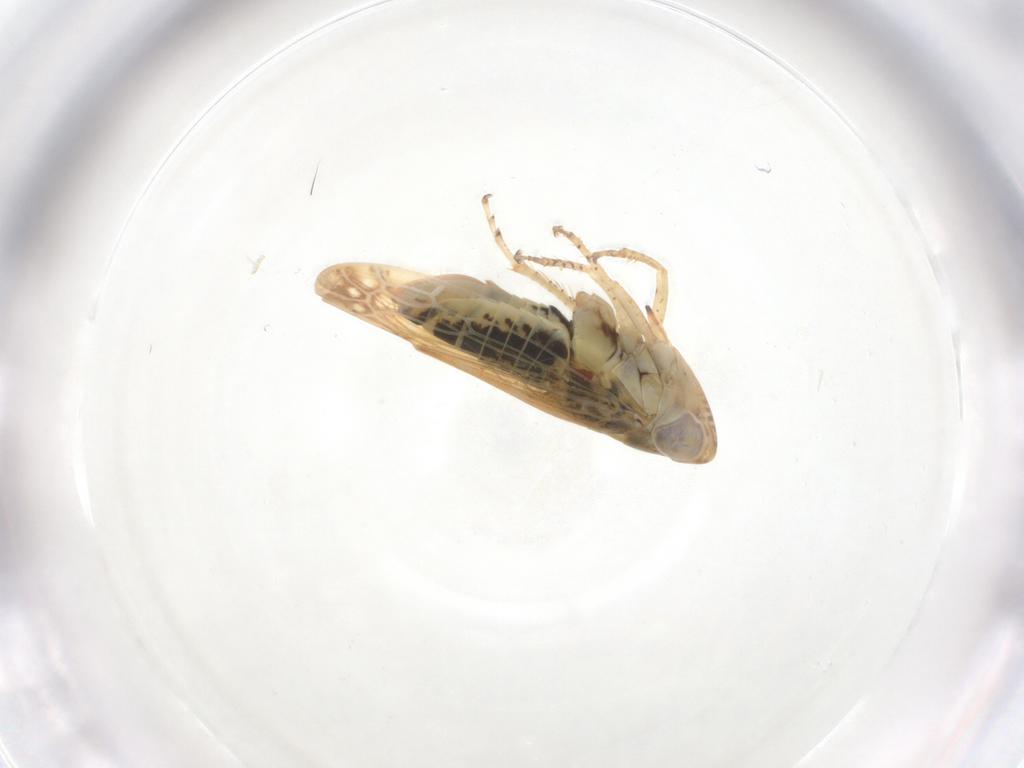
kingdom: Animalia
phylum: Arthropoda
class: Insecta
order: Hemiptera
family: Cicadellidae
